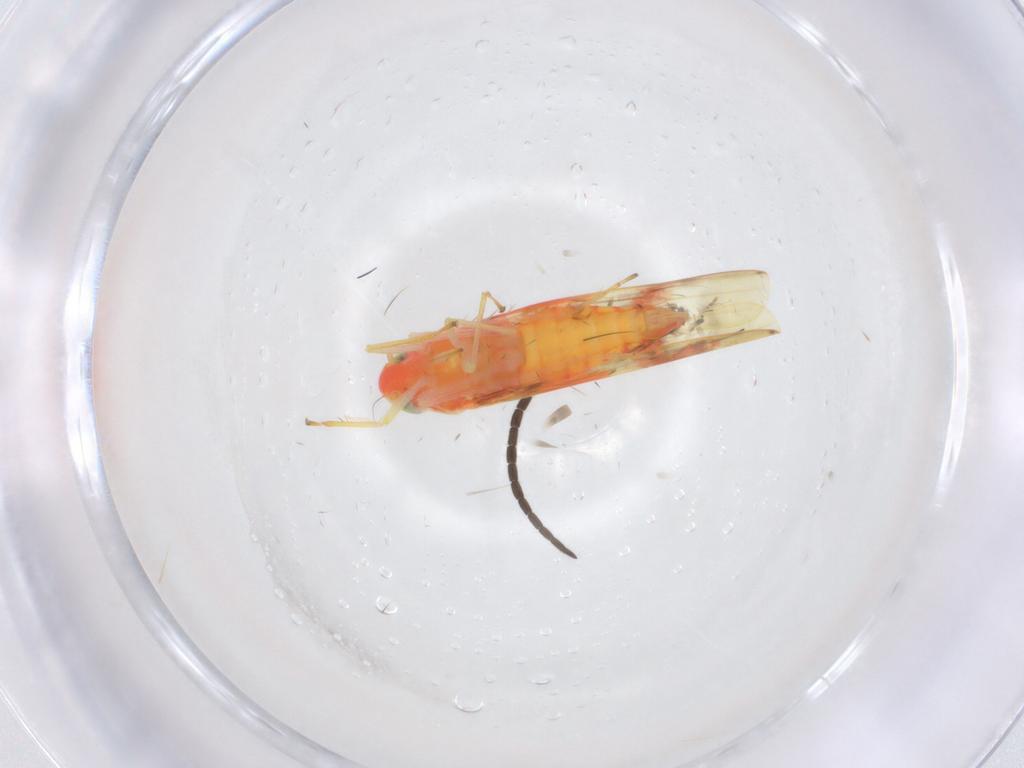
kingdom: Animalia
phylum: Arthropoda
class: Insecta
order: Hemiptera
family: Cicadellidae
